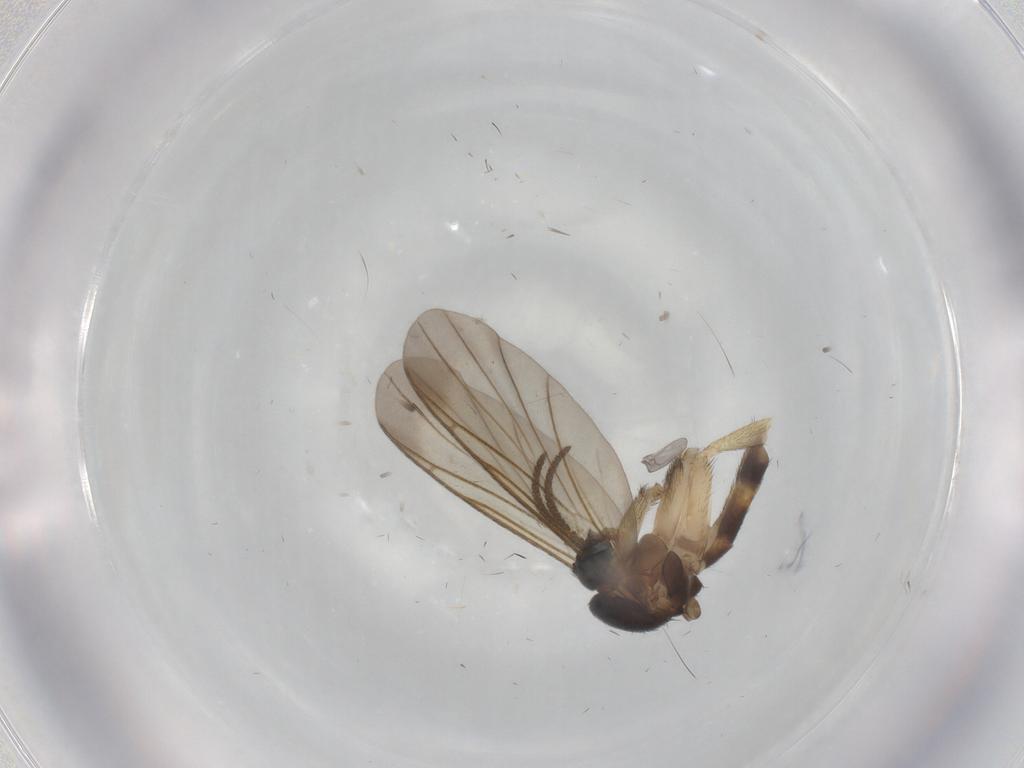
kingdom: Animalia
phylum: Arthropoda
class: Insecta
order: Diptera
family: Keroplatidae
